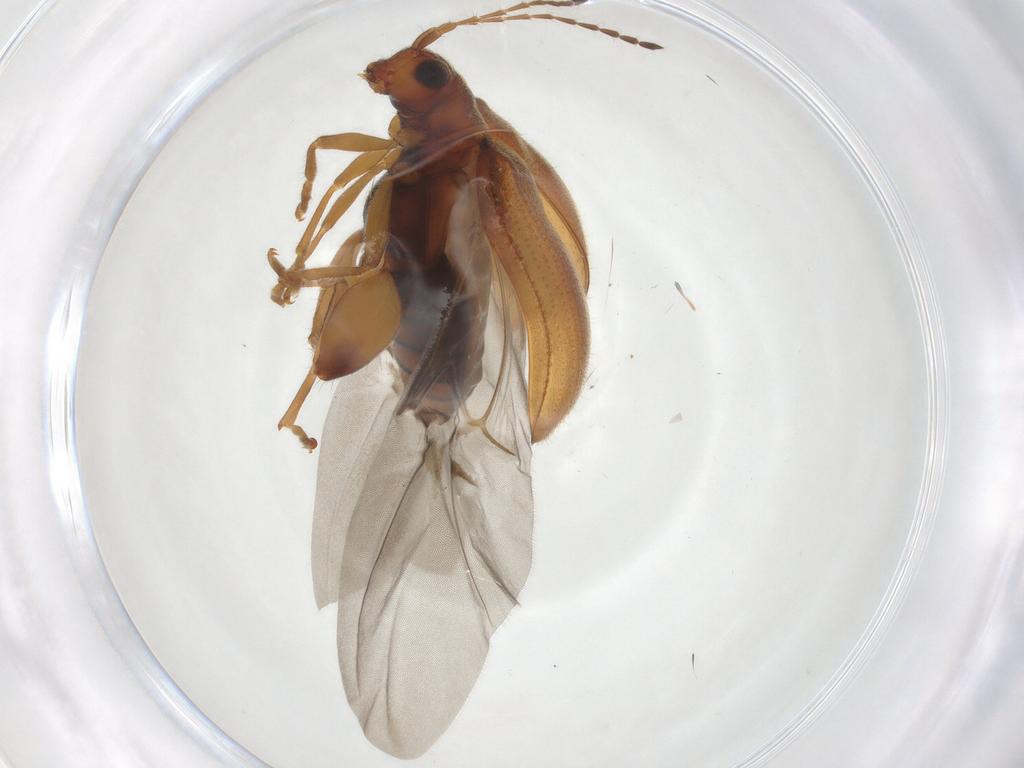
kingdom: Animalia
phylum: Arthropoda
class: Insecta
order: Coleoptera
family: Chrysomelidae
